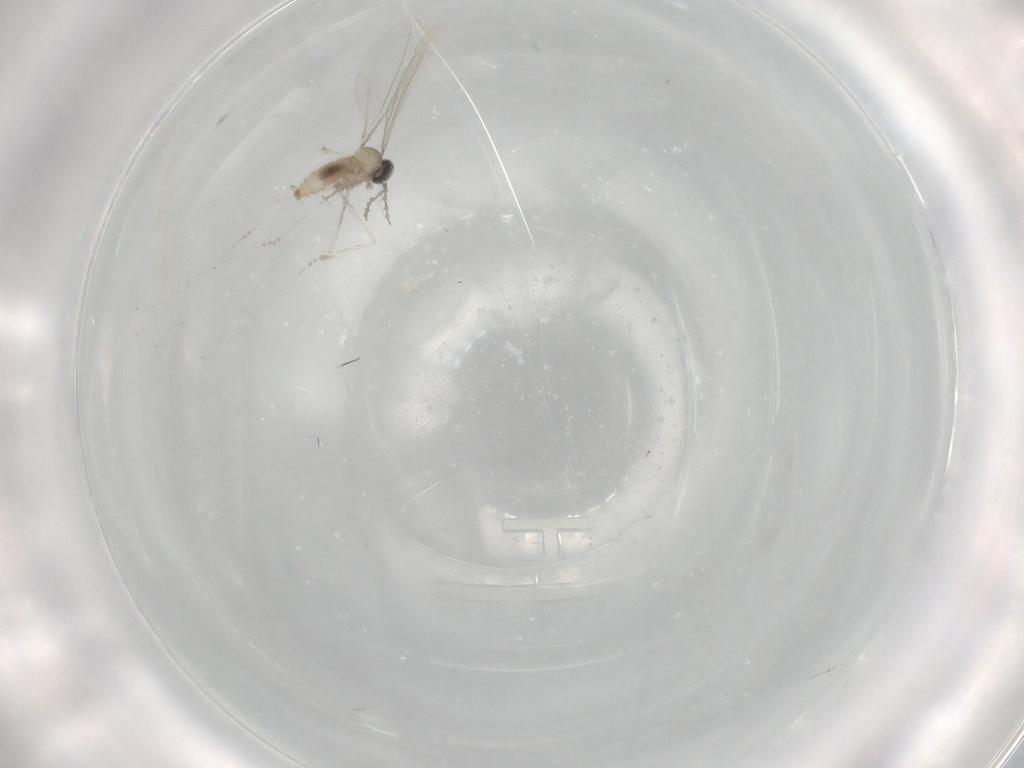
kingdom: Animalia
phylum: Arthropoda
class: Insecta
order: Diptera
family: Cecidomyiidae
